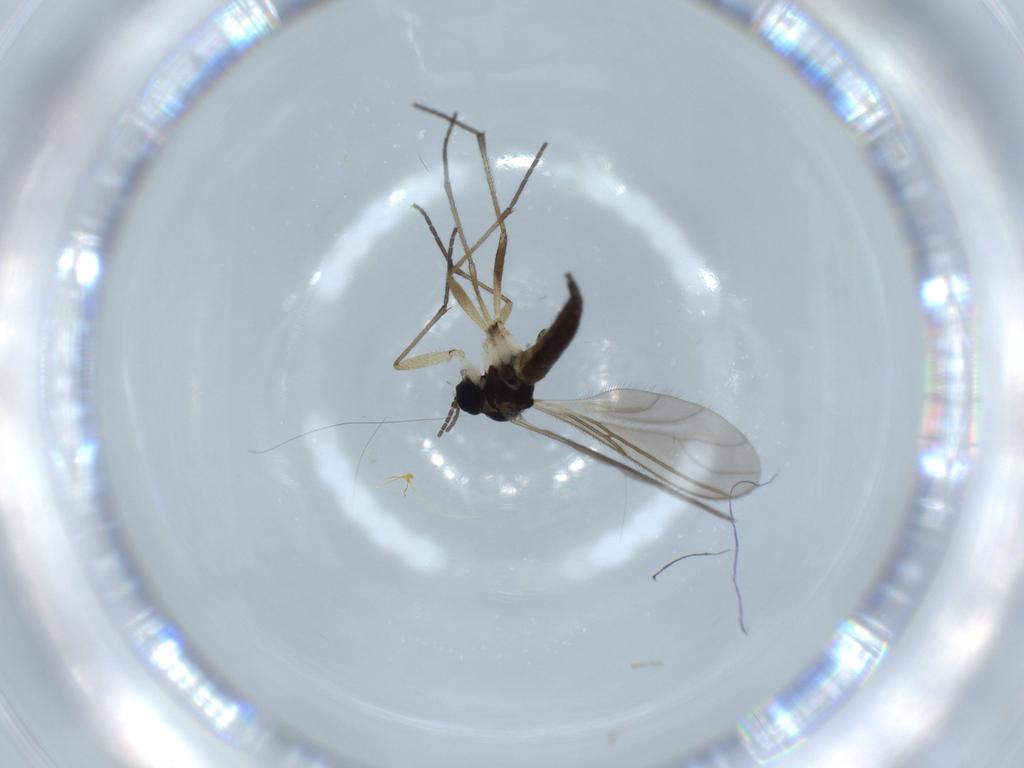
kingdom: Animalia
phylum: Arthropoda
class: Insecta
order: Diptera
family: Sciaridae
